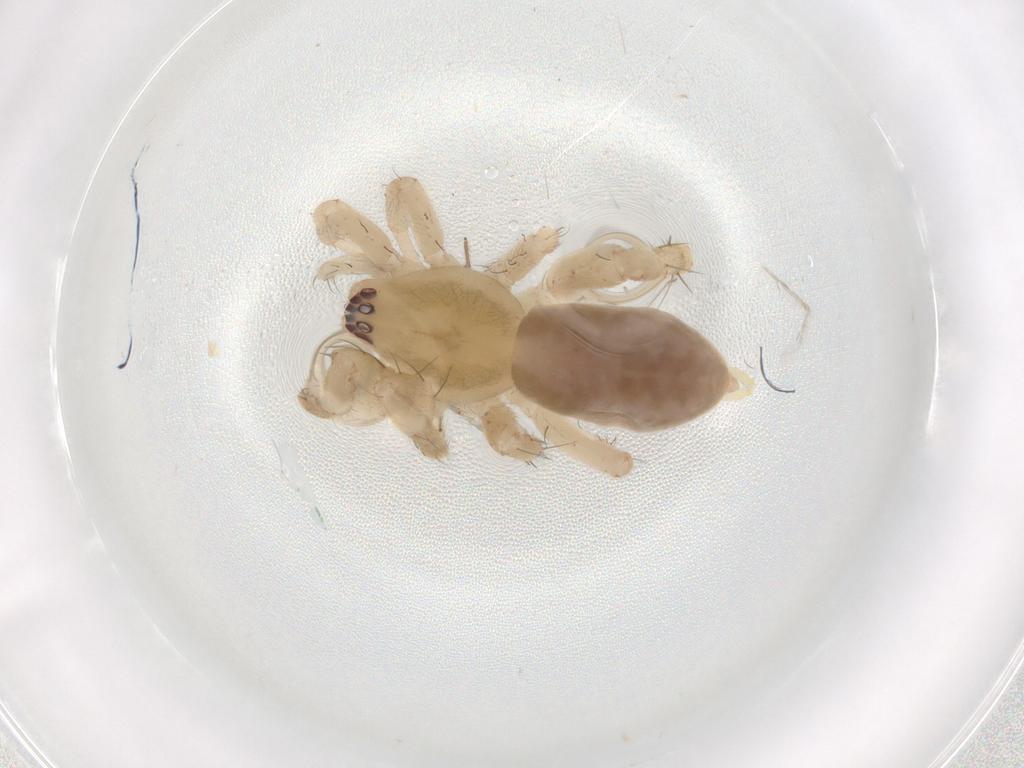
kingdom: Animalia
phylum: Arthropoda
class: Arachnida
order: Araneae
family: Anyphaenidae
